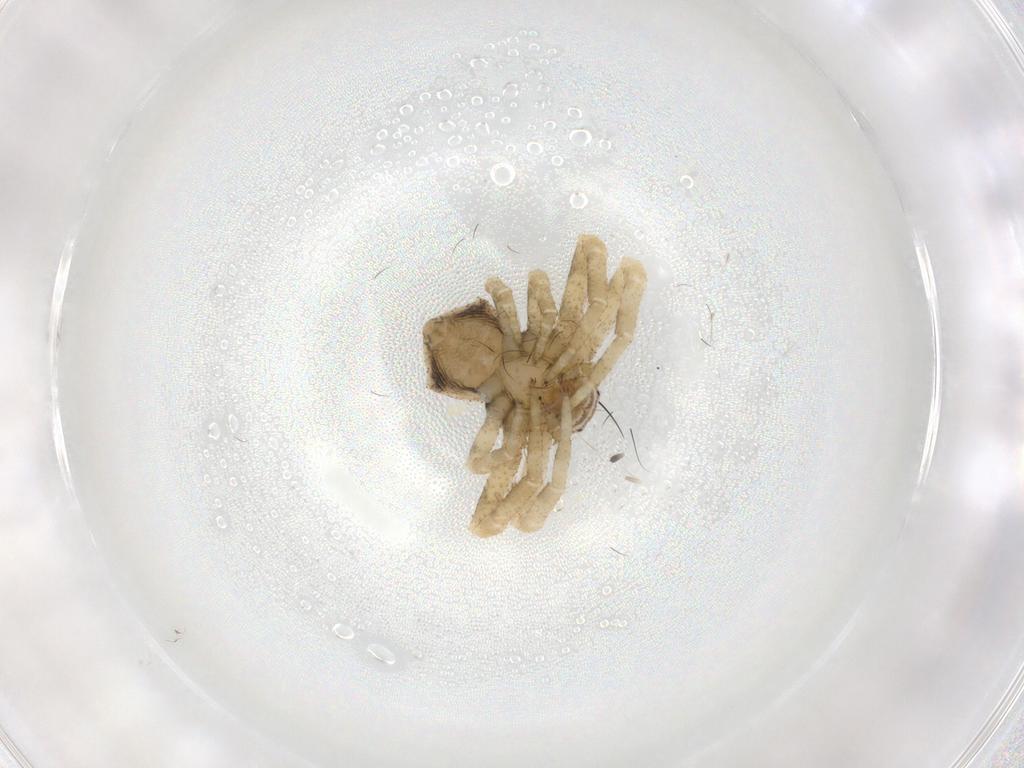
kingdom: Animalia
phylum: Arthropoda
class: Arachnida
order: Araneae
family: Thomisidae
